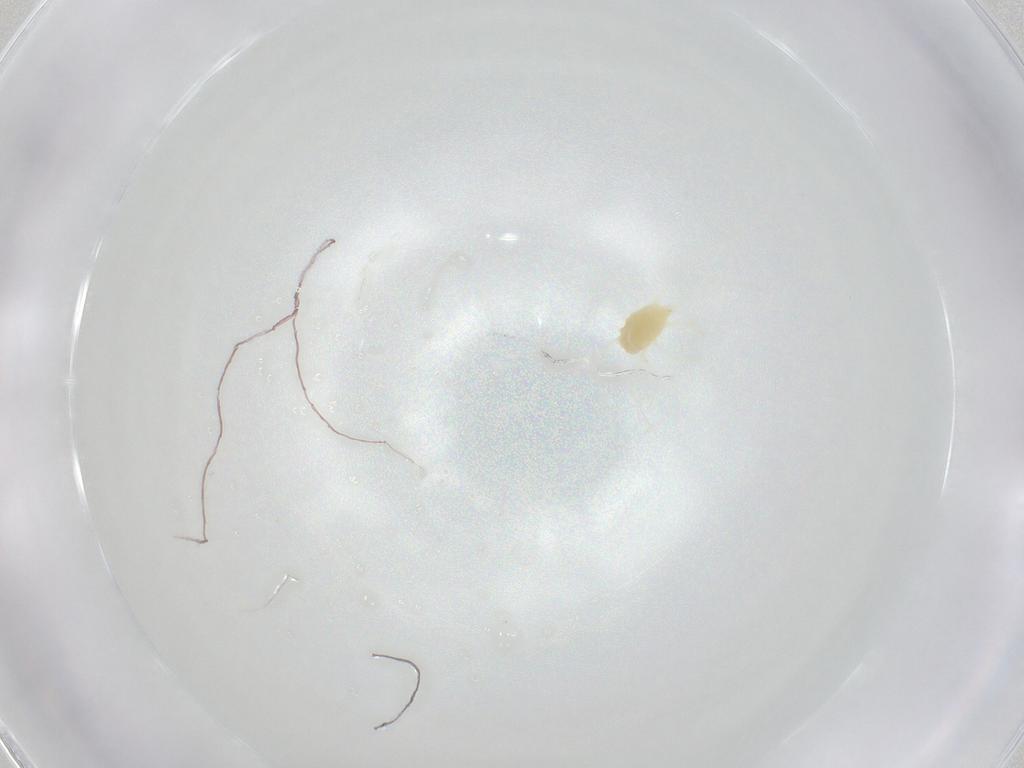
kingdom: Animalia
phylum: Arthropoda
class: Arachnida
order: Trombidiformes
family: Tetranychidae
